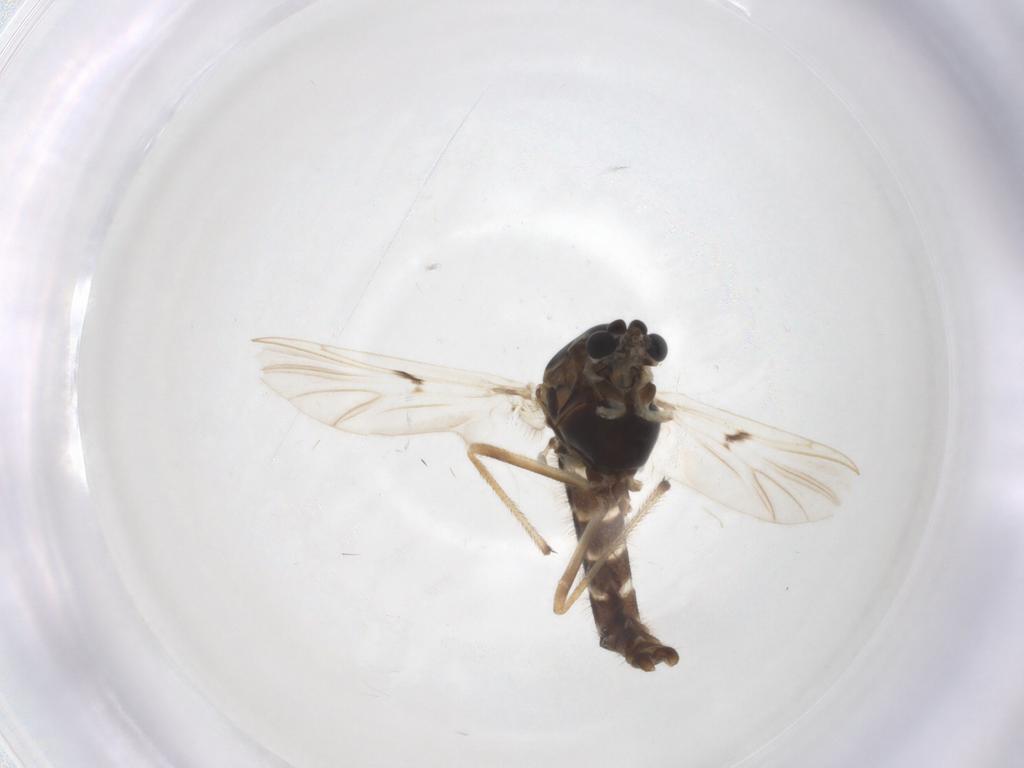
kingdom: Animalia
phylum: Arthropoda
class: Insecta
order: Diptera
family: Chironomidae
